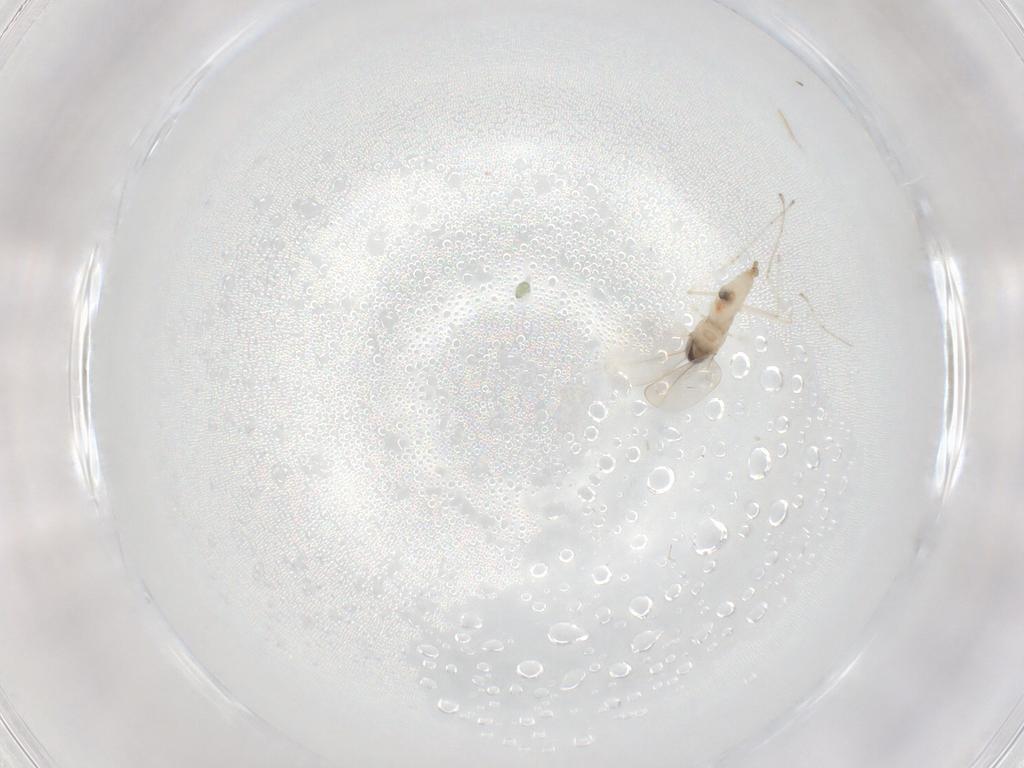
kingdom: Animalia
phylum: Arthropoda
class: Insecta
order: Diptera
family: Cecidomyiidae
